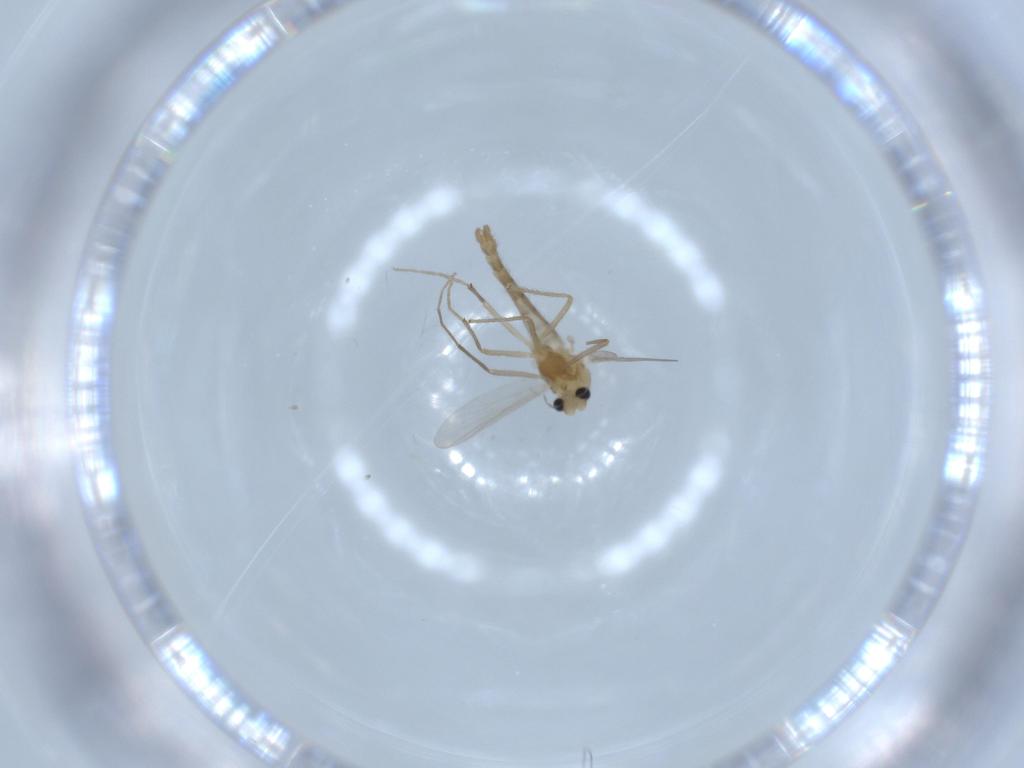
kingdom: Animalia
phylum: Arthropoda
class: Insecta
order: Diptera
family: Chironomidae
